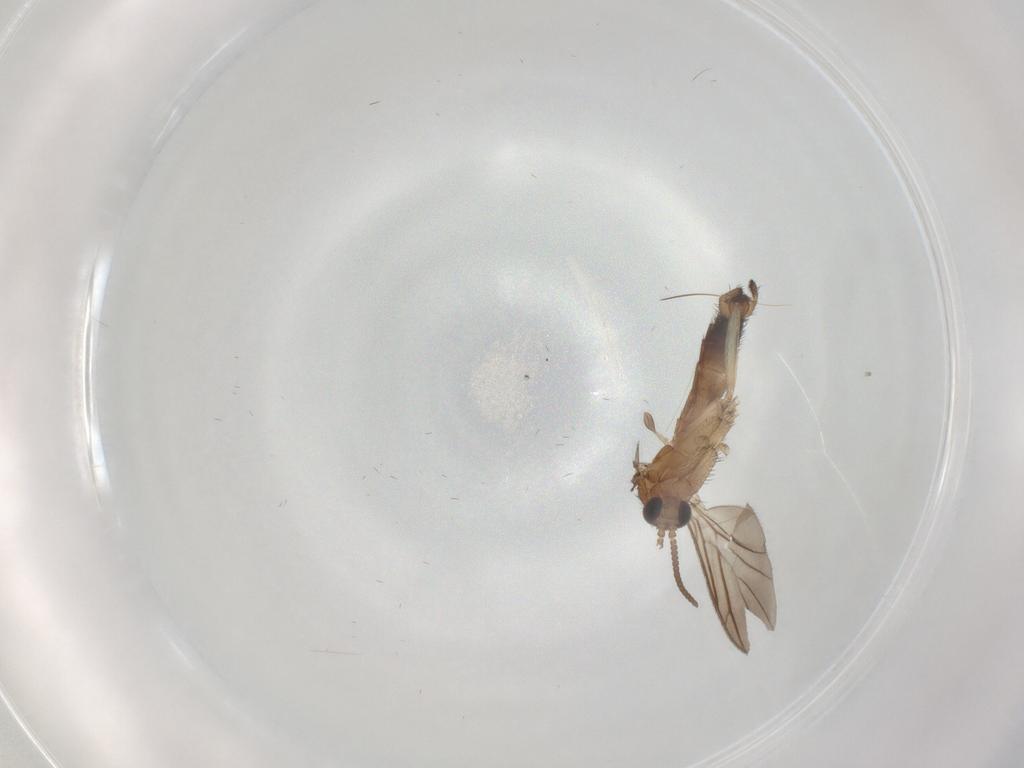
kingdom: Animalia
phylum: Arthropoda
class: Insecta
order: Diptera
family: Keroplatidae
